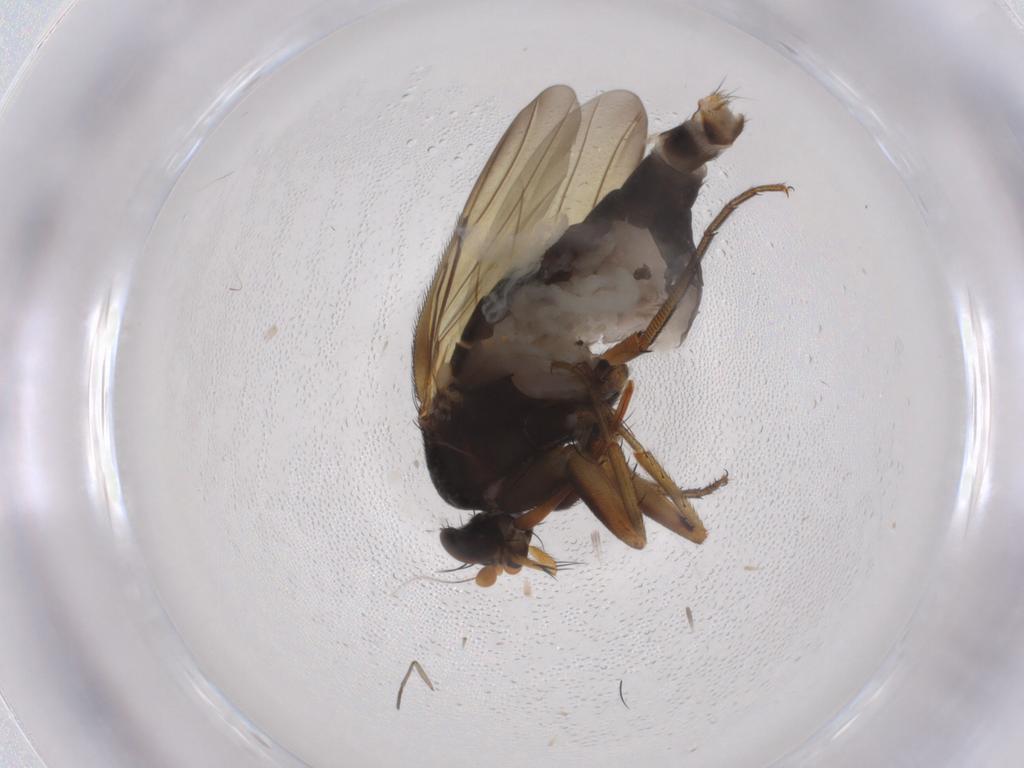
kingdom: Animalia
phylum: Arthropoda
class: Insecta
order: Diptera
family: Phoridae
